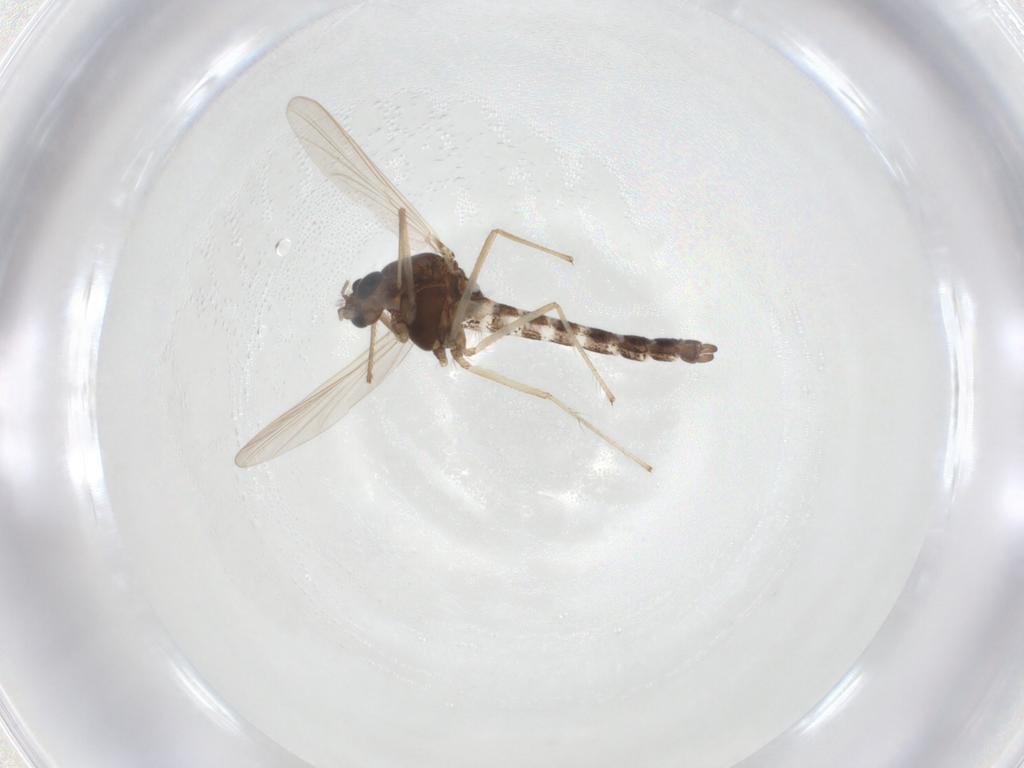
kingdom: Animalia
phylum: Arthropoda
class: Insecta
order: Diptera
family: Chironomidae
